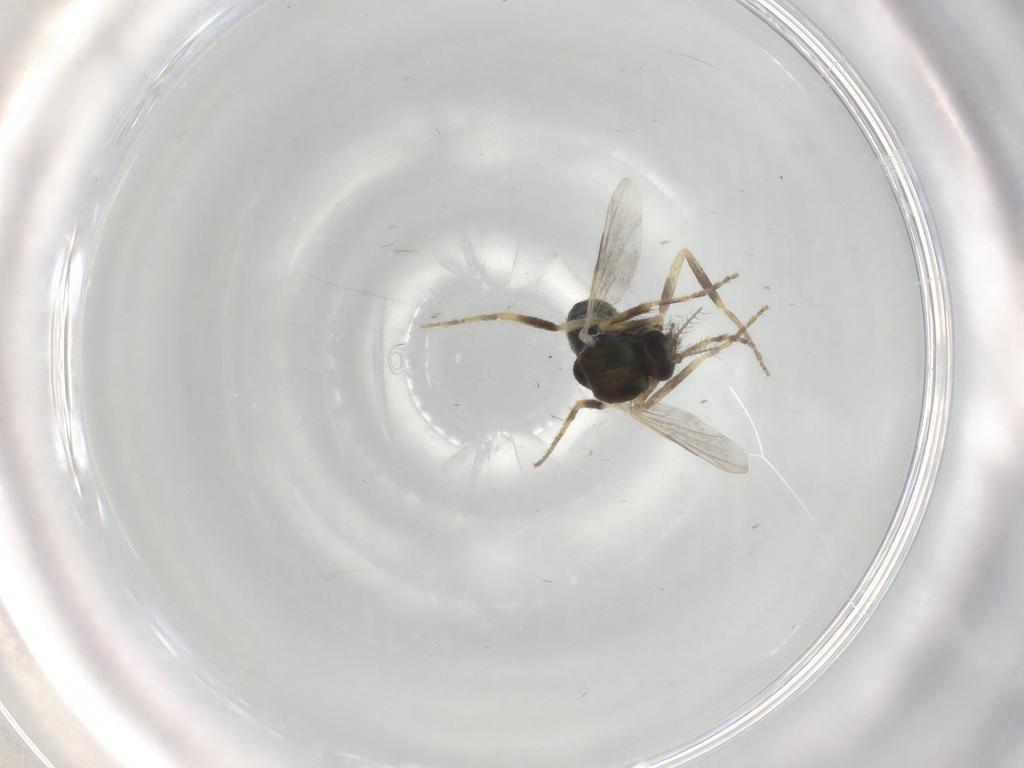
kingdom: Animalia
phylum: Arthropoda
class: Insecta
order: Diptera
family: Ceratopogonidae
